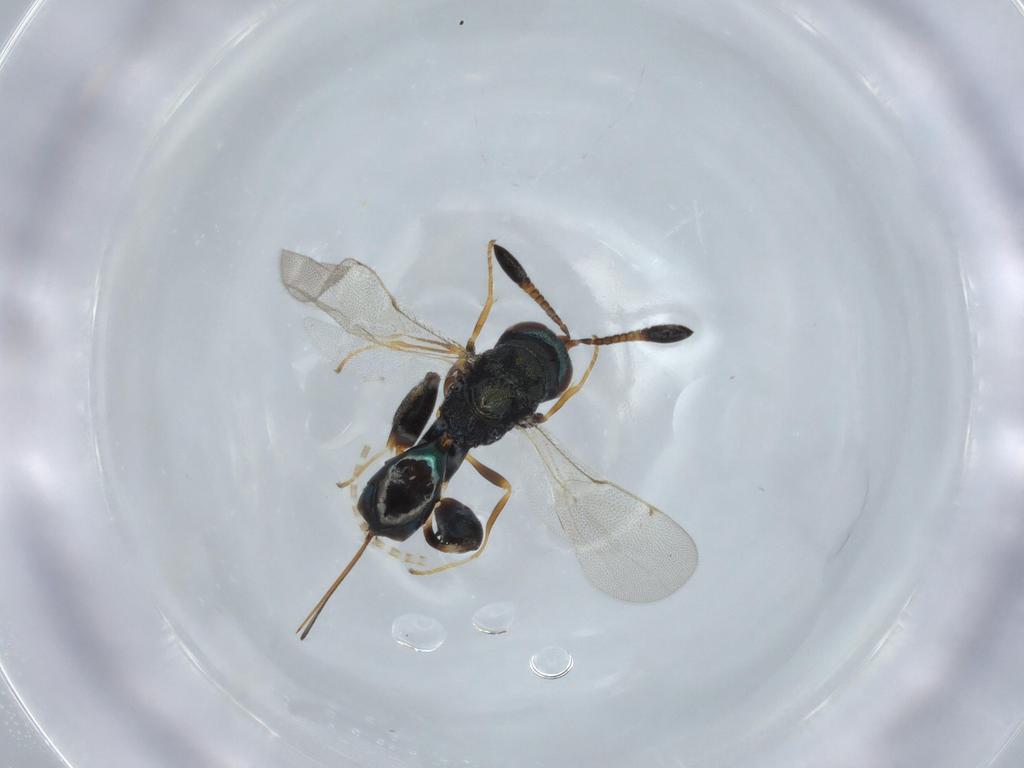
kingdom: Animalia
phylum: Arthropoda
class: Insecta
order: Hymenoptera
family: Torymidae
